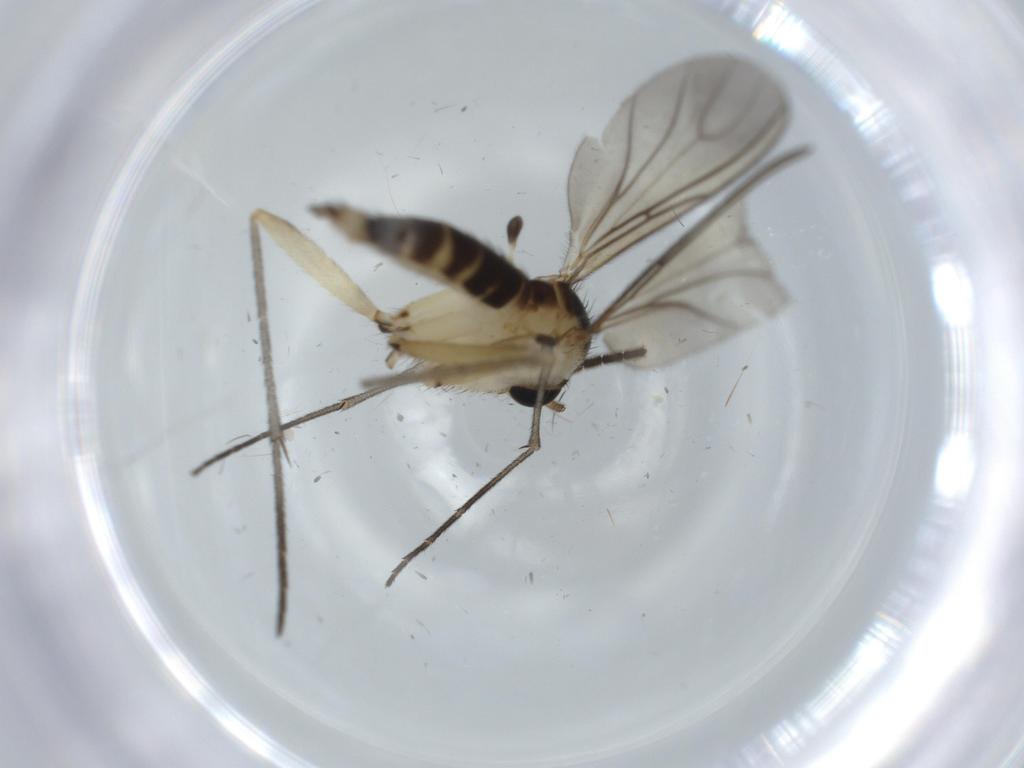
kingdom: Animalia
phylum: Arthropoda
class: Insecta
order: Diptera
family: Sciaridae
